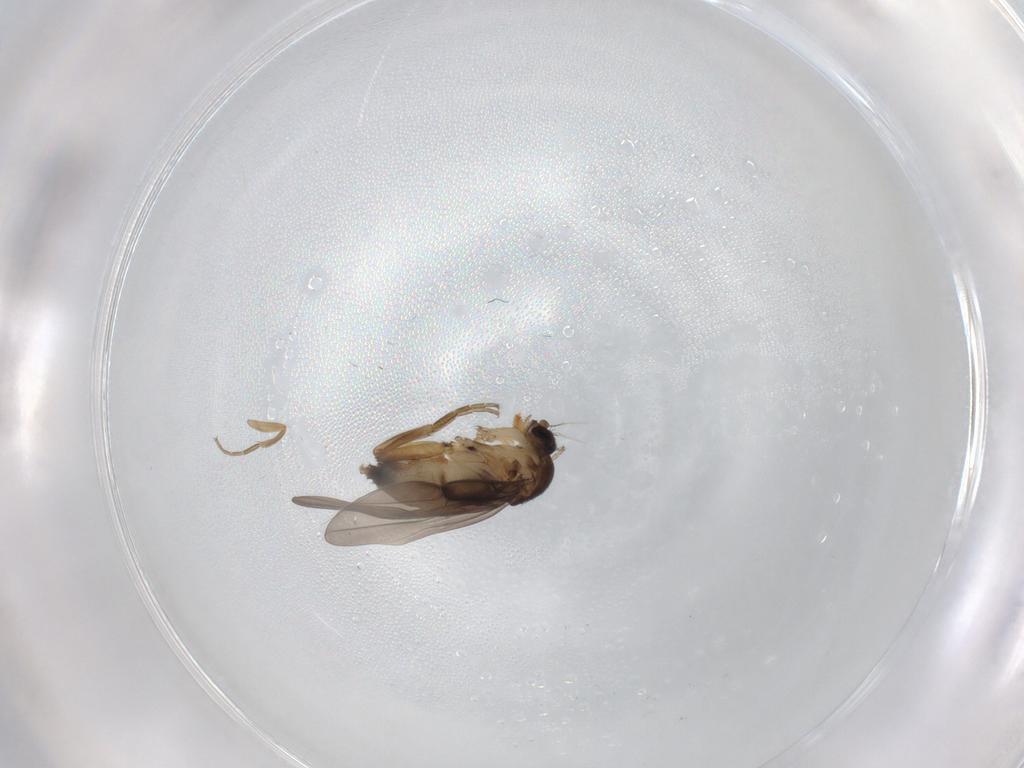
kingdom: Animalia
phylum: Arthropoda
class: Insecta
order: Diptera
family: Phoridae
